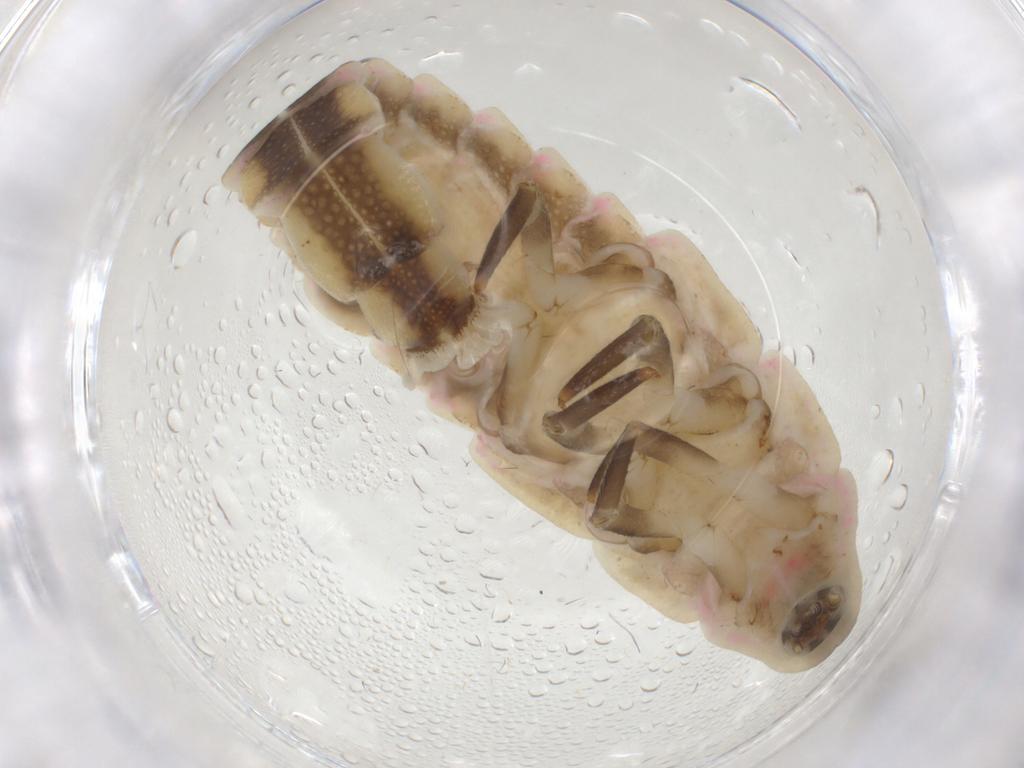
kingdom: Animalia
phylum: Arthropoda
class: Insecta
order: Coleoptera
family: Lampyridae
